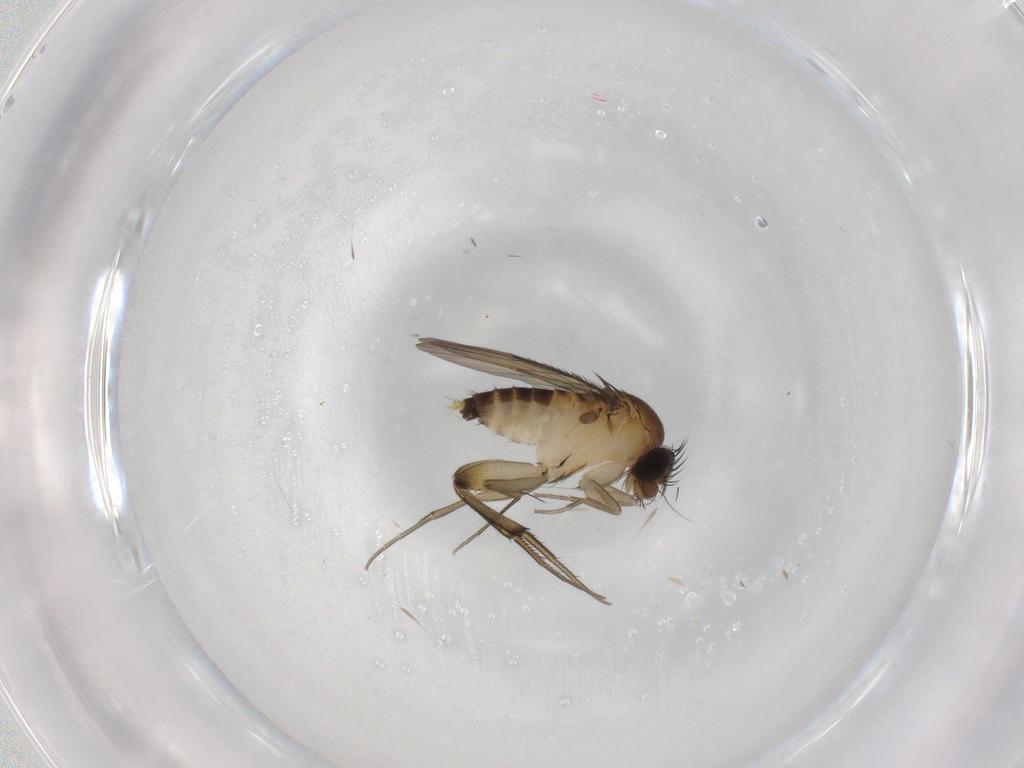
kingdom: Animalia
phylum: Arthropoda
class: Insecta
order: Diptera
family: Phoridae
